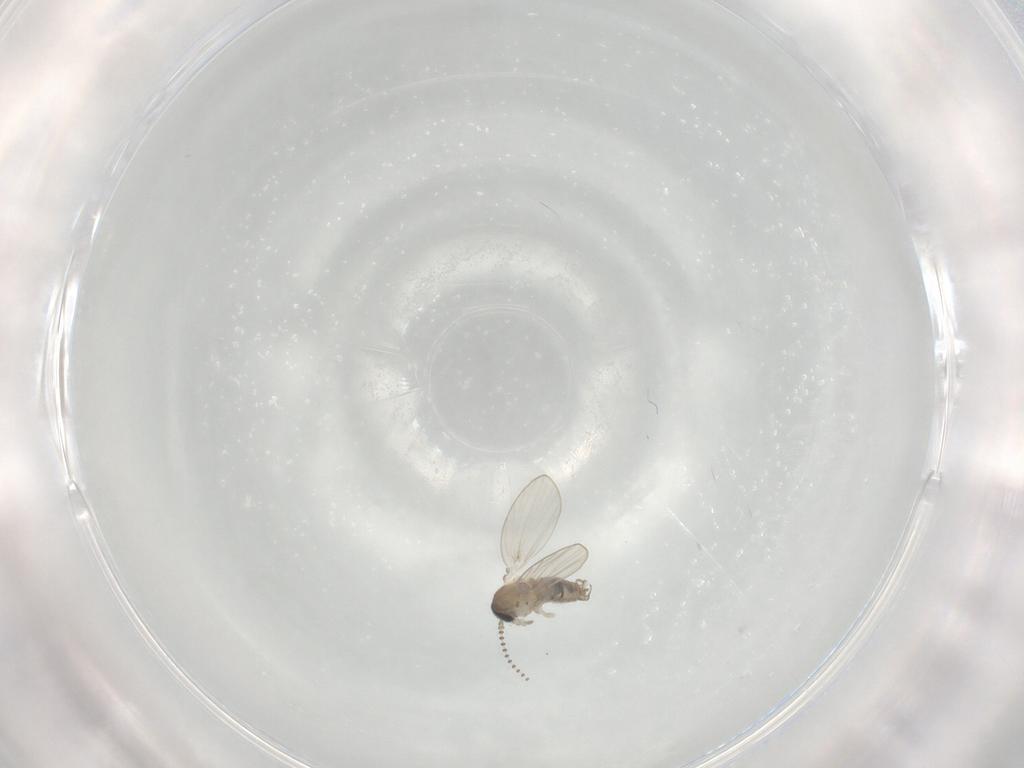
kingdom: Animalia
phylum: Arthropoda
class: Insecta
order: Diptera
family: Psychodidae
